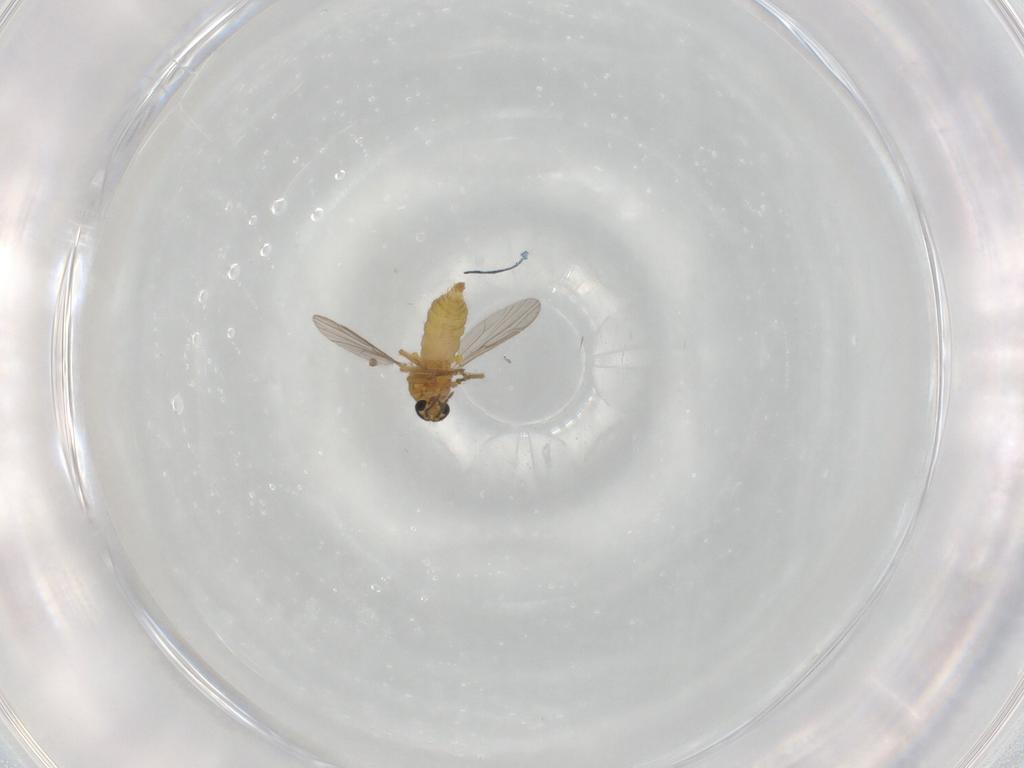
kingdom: Animalia
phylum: Arthropoda
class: Insecta
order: Diptera
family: Ceratopogonidae
